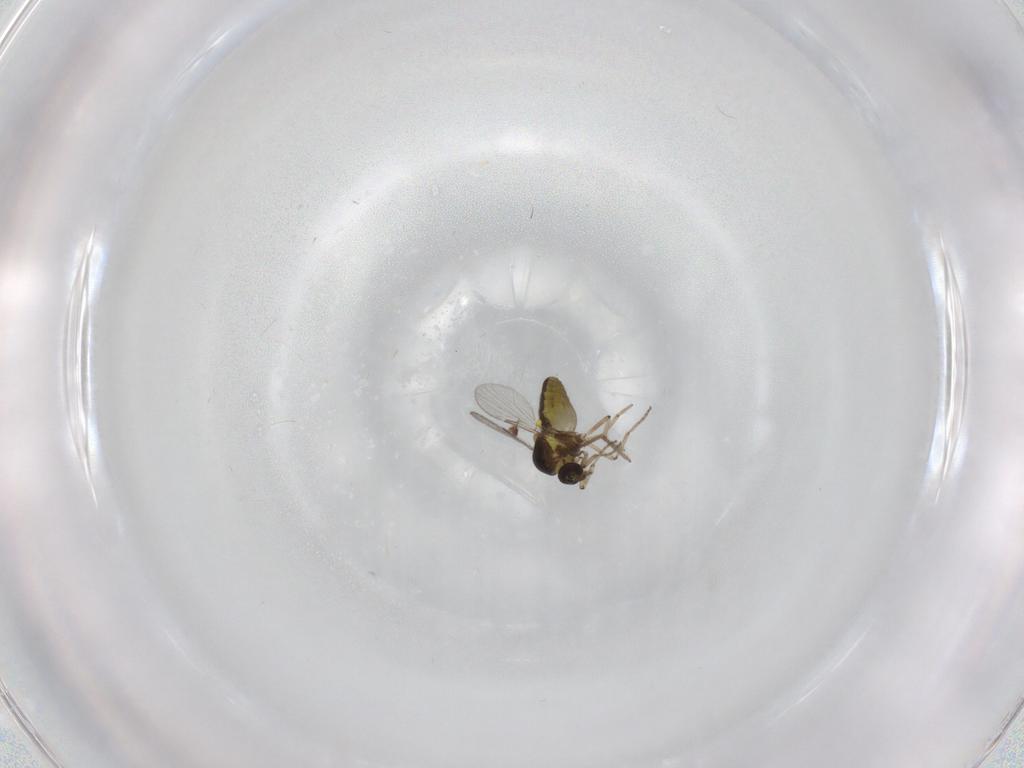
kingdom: Animalia
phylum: Arthropoda
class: Insecta
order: Diptera
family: Ceratopogonidae
